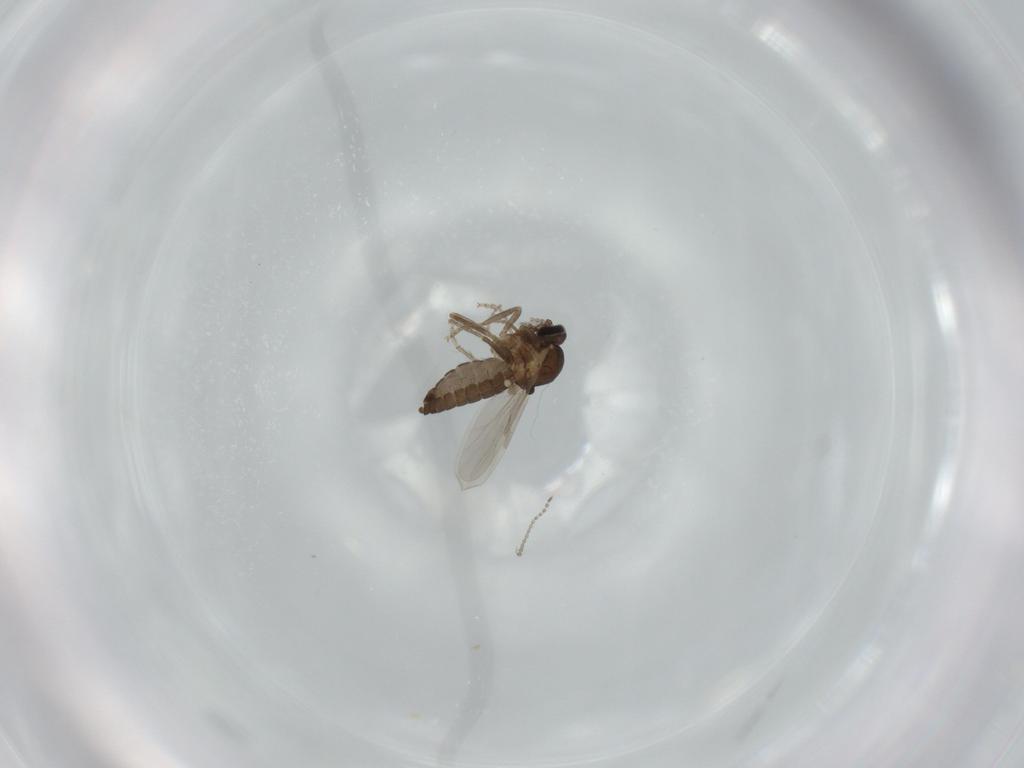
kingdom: Animalia
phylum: Arthropoda
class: Insecta
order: Diptera
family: Ceratopogonidae
